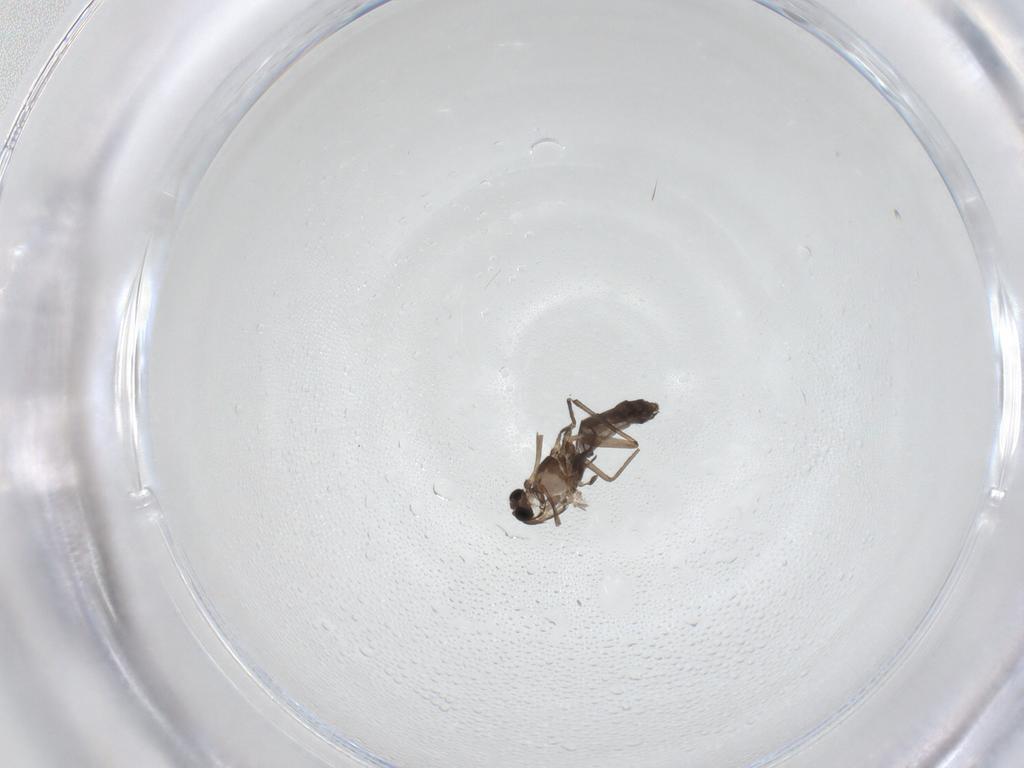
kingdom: Animalia
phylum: Arthropoda
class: Insecta
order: Diptera
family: Chironomidae
